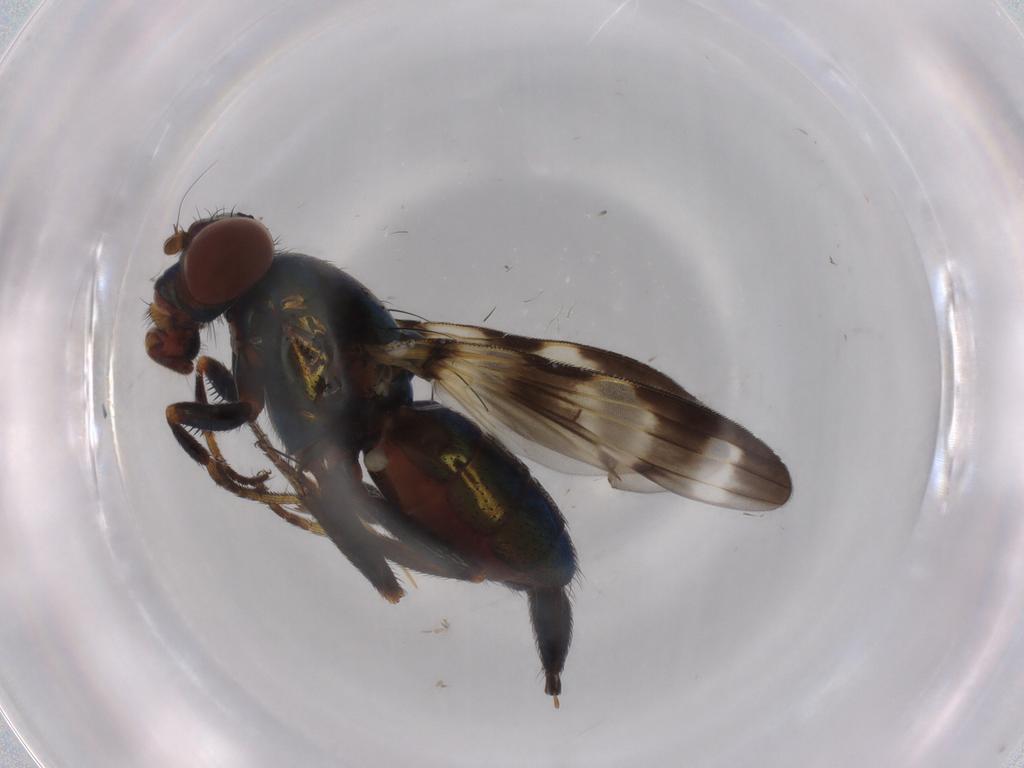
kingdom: Animalia
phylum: Arthropoda
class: Insecta
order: Diptera
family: Ulidiidae
